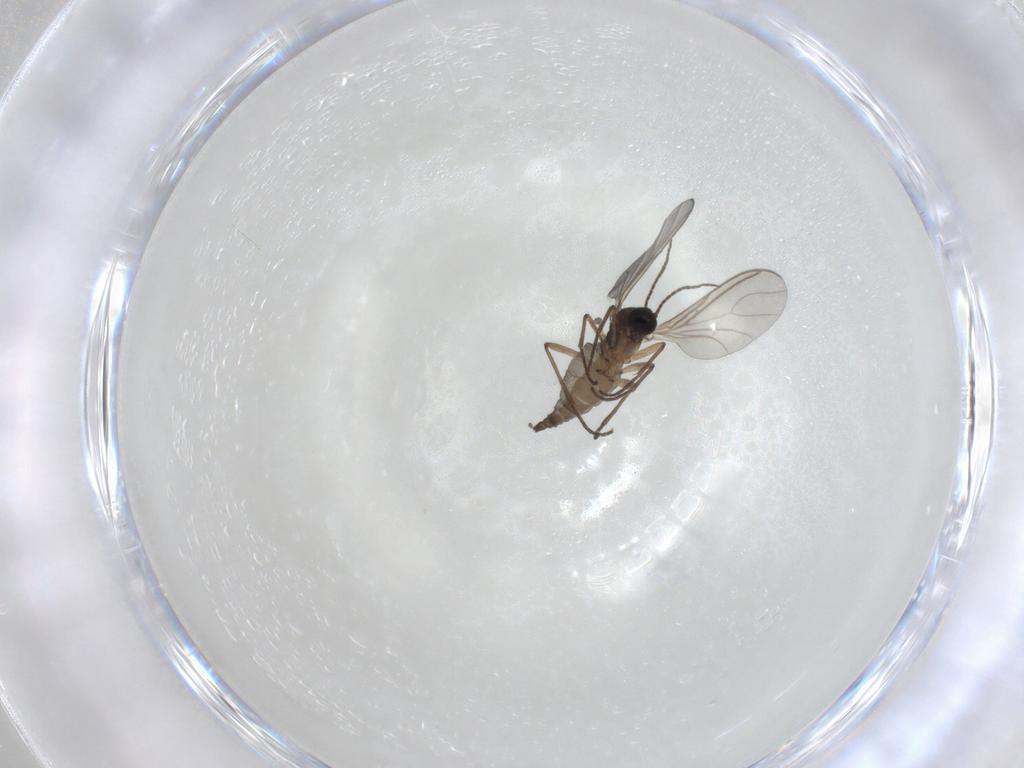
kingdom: Animalia
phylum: Arthropoda
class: Insecta
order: Diptera
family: Sciaridae
